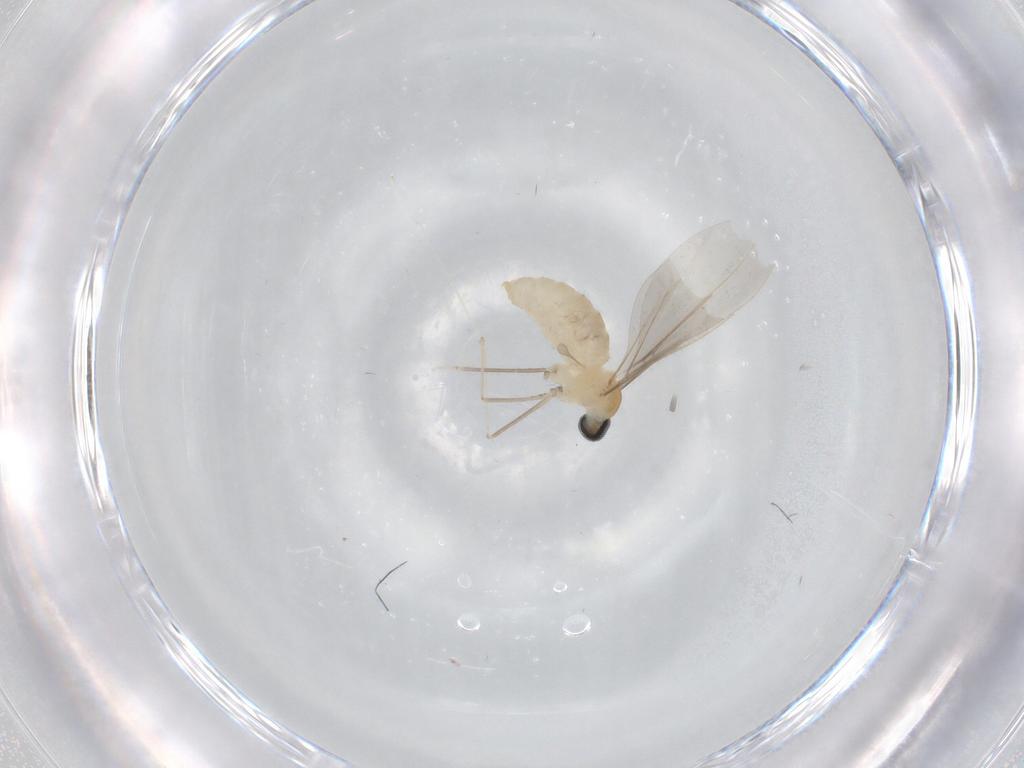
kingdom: Animalia
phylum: Arthropoda
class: Insecta
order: Diptera
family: Cecidomyiidae
